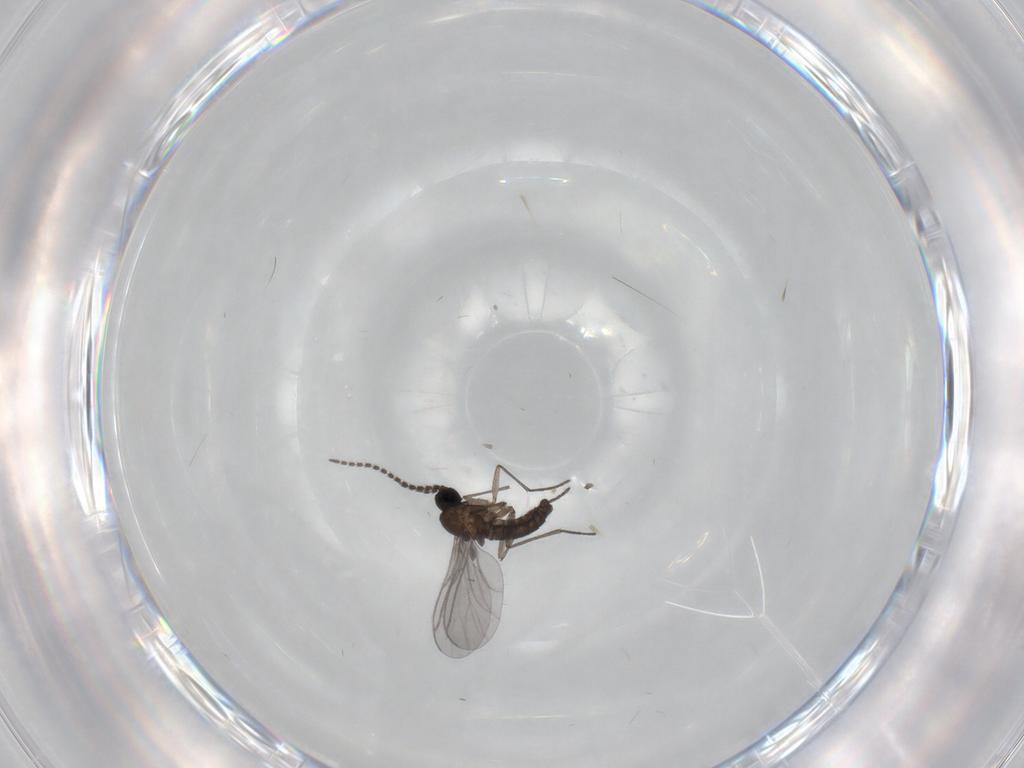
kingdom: Animalia
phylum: Arthropoda
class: Insecta
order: Diptera
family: Sciaridae
